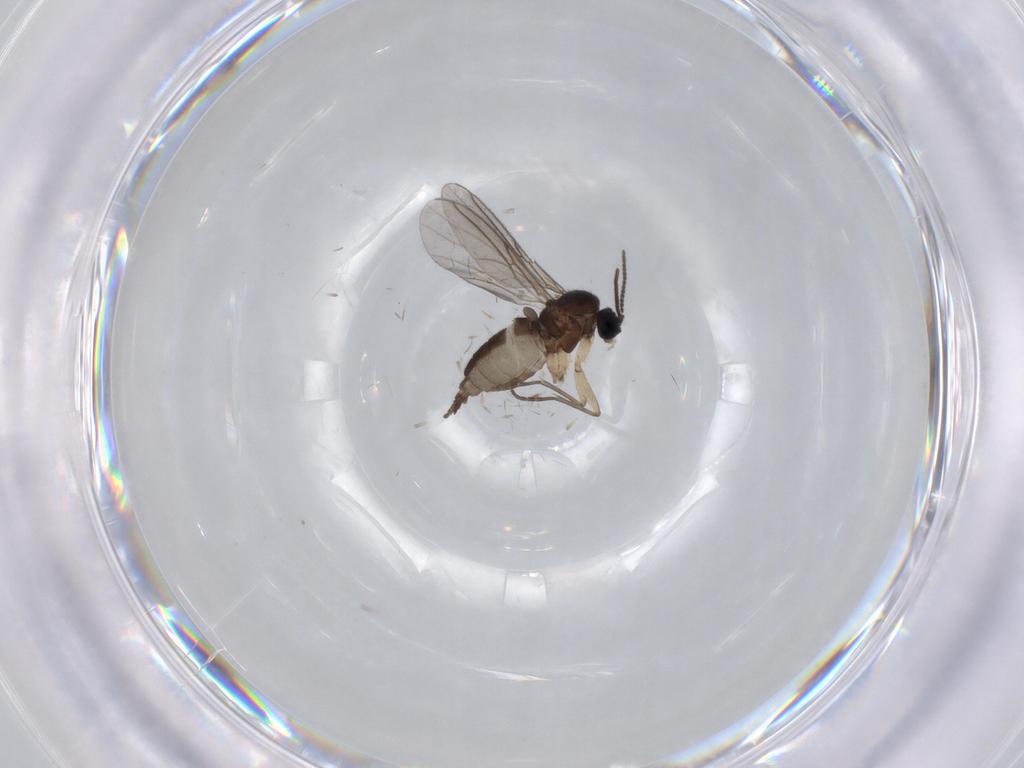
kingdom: Animalia
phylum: Arthropoda
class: Insecta
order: Diptera
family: Sciaridae
